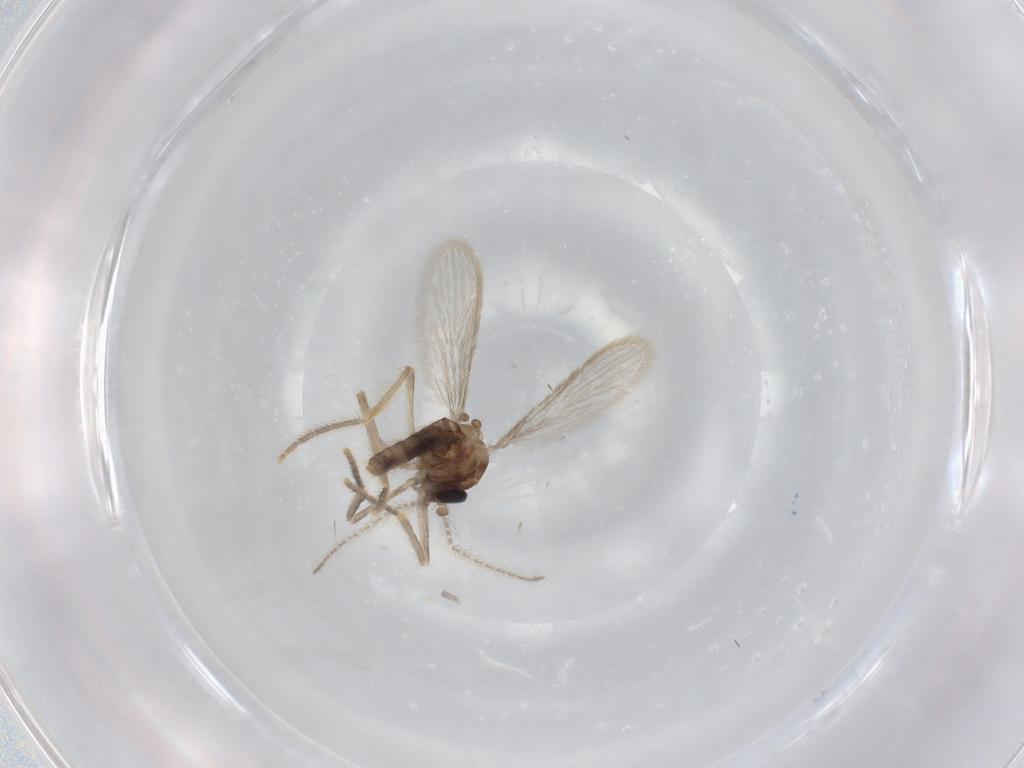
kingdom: Animalia
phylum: Arthropoda
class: Insecta
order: Diptera
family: Corethrellidae
